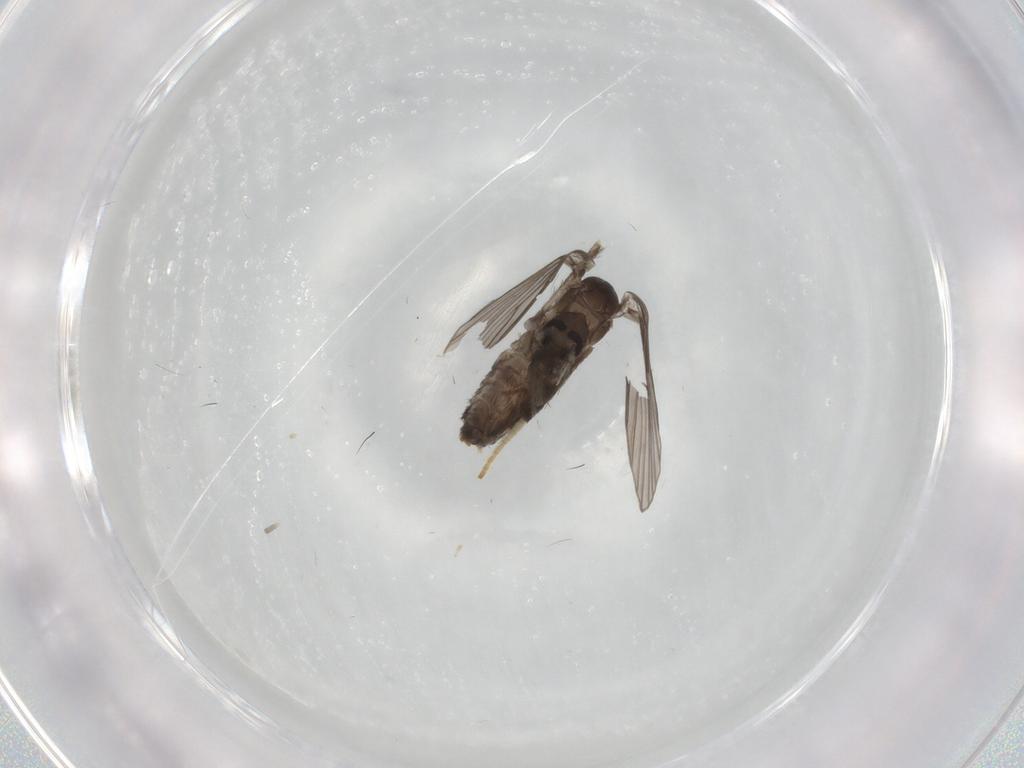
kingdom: Animalia
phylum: Arthropoda
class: Insecta
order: Diptera
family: Psychodidae
